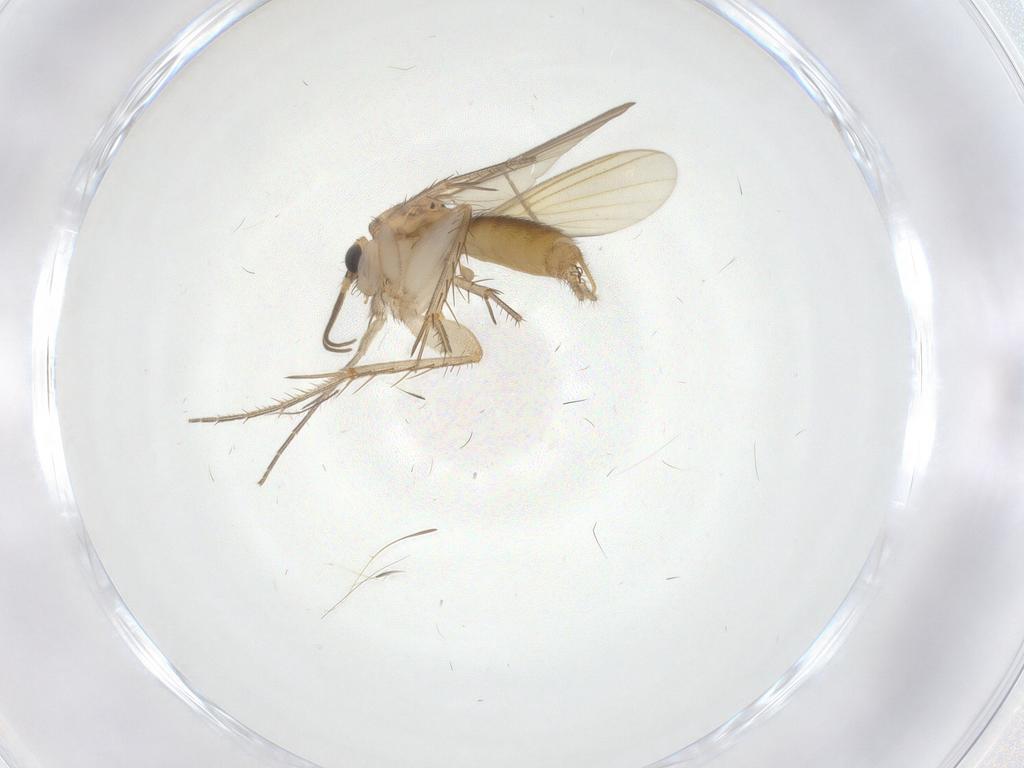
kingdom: Animalia
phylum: Arthropoda
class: Insecta
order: Diptera
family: Mycetophilidae
